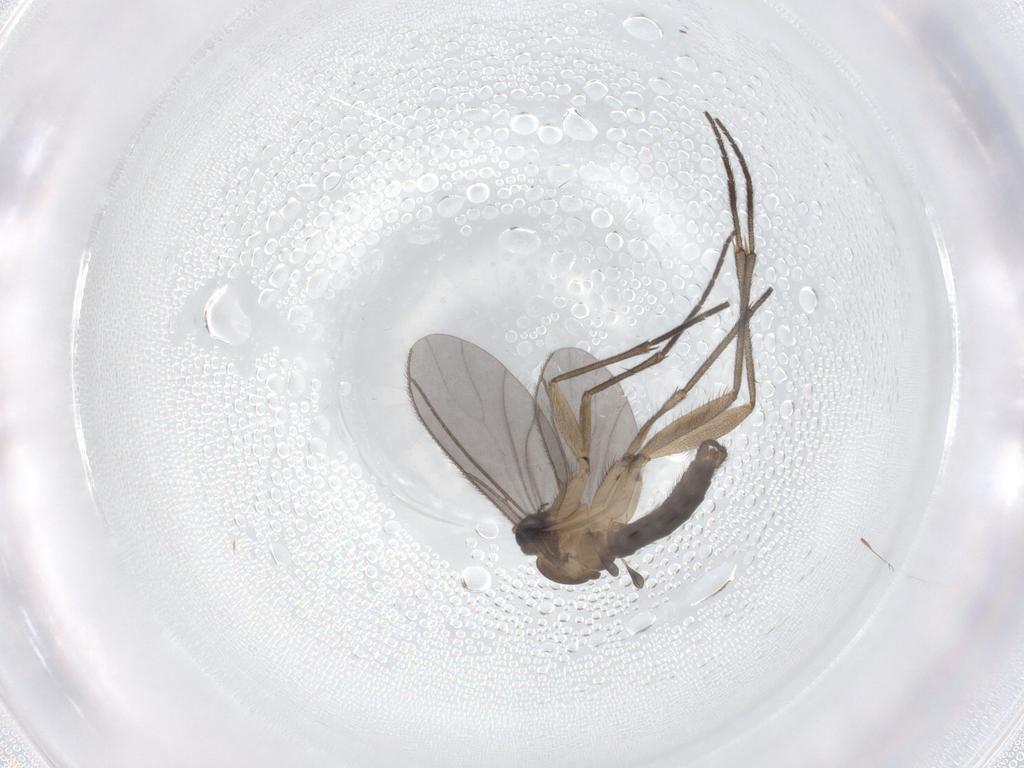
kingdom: Animalia
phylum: Arthropoda
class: Insecta
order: Diptera
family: Sciaridae
